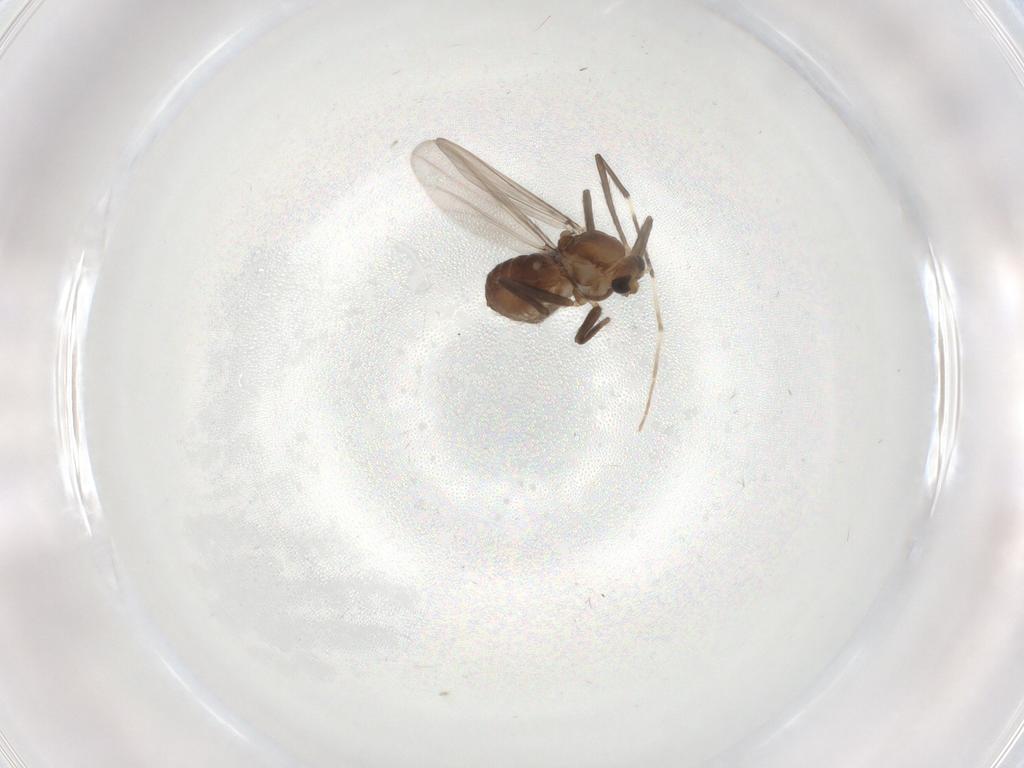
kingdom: Animalia
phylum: Arthropoda
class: Insecta
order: Diptera
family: Chironomidae
